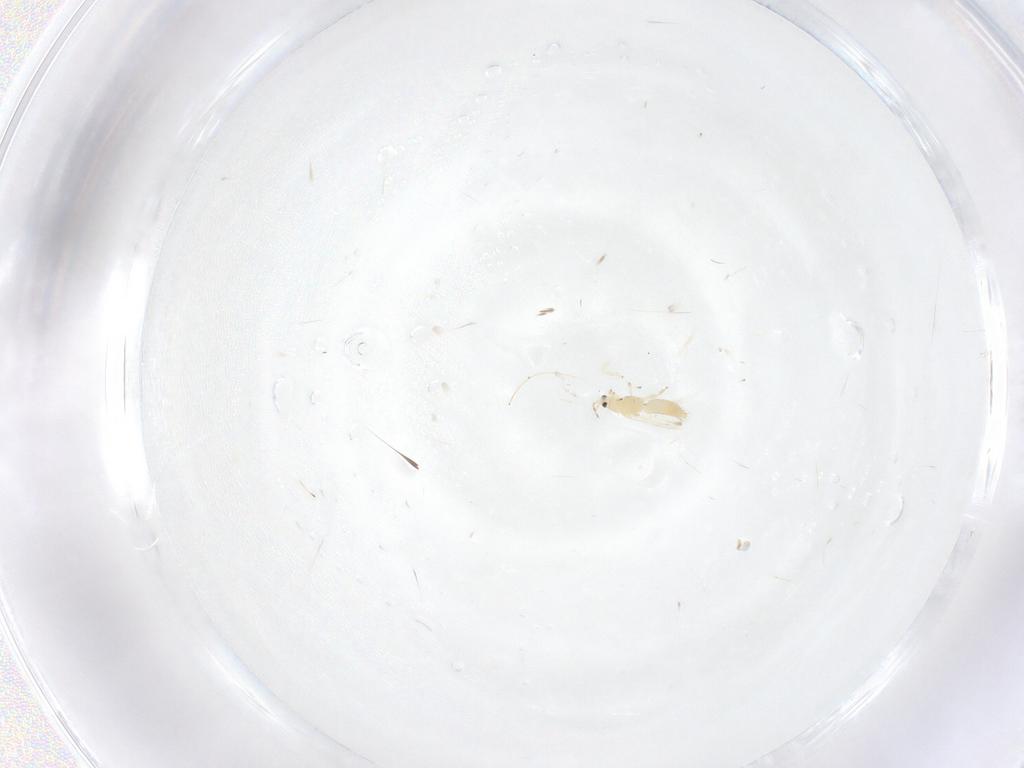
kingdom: Animalia
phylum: Arthropoda
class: Insecta
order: Thysanoptera
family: Thripidae
